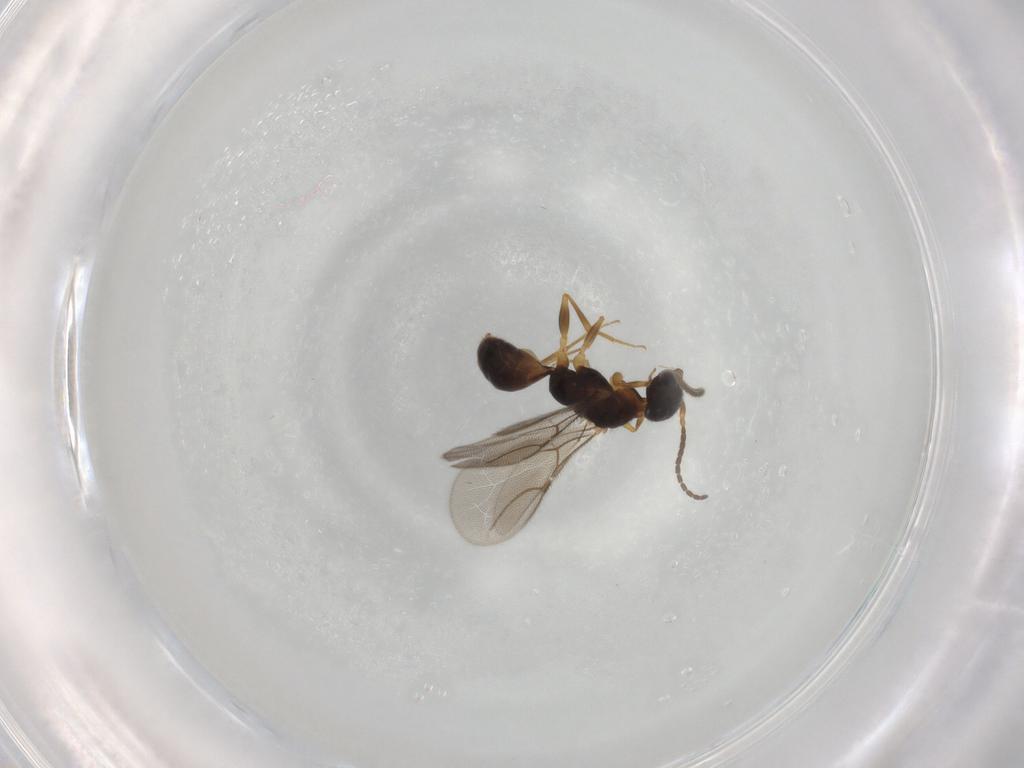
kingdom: Animalia
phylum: Arthropoda
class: Insecta
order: Hymenoptera
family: Bethylidae
